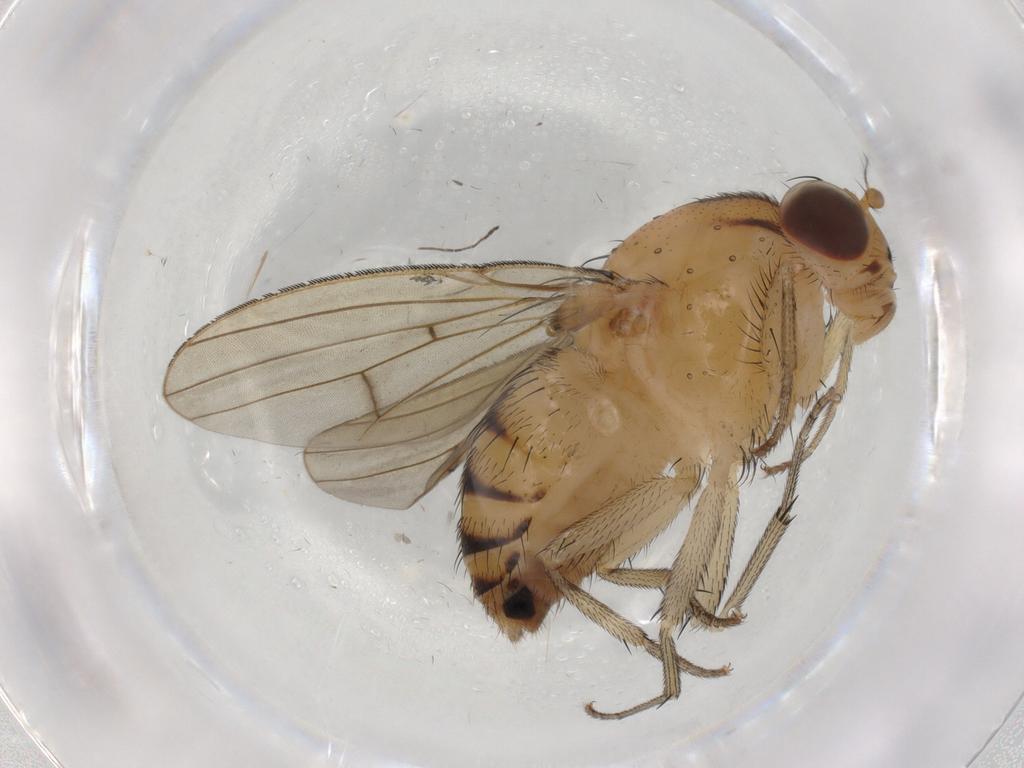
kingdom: Animalia
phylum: Arthropoda
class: Insecta
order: Diptera
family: Lauxaniidae
